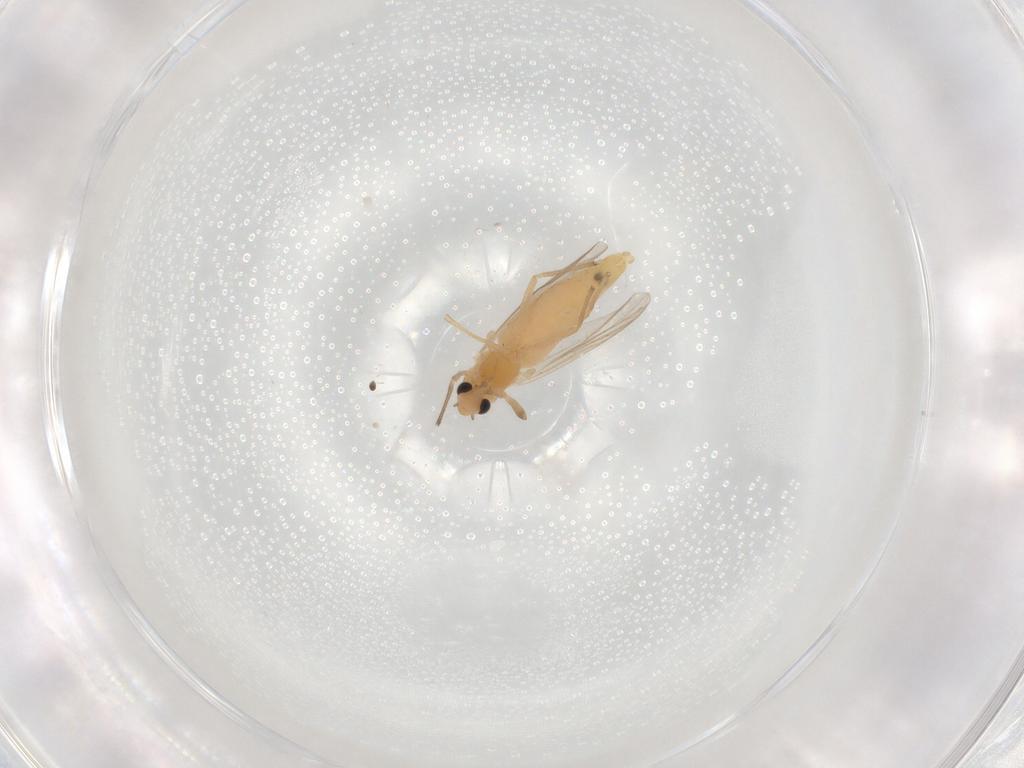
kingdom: Animalia
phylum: Arthropoda
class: Insecta
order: Diptera
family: Chironomidae
